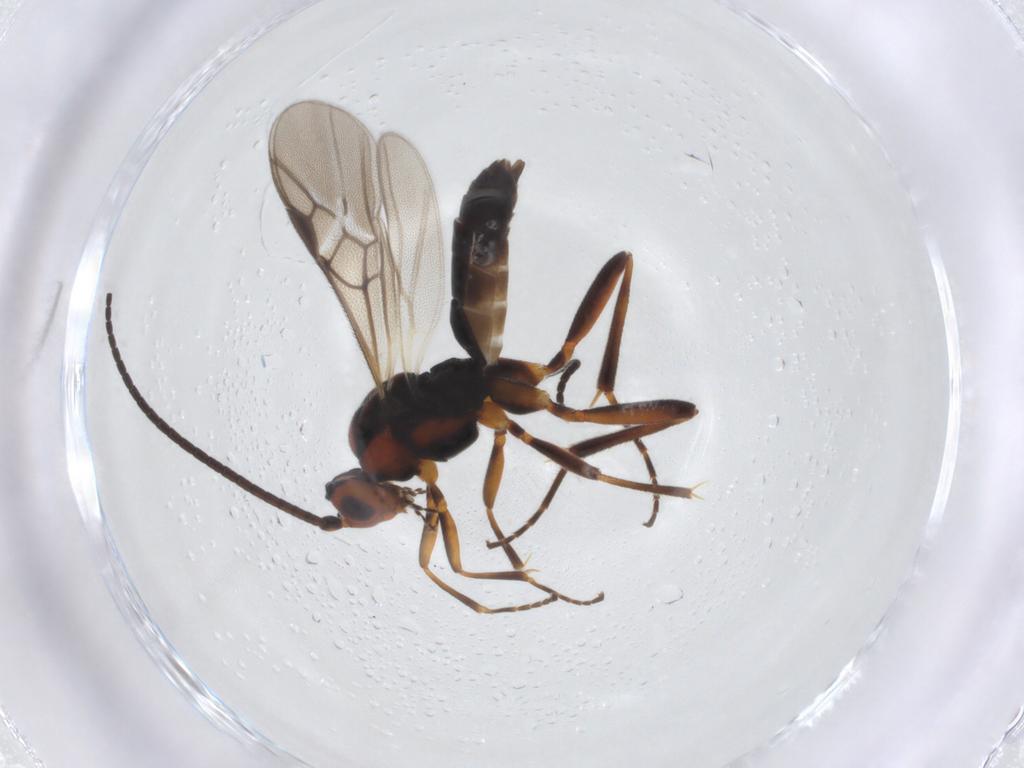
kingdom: Animalia
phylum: Arthropoda
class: Insecta
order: Hymenoptera
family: Braconidae
